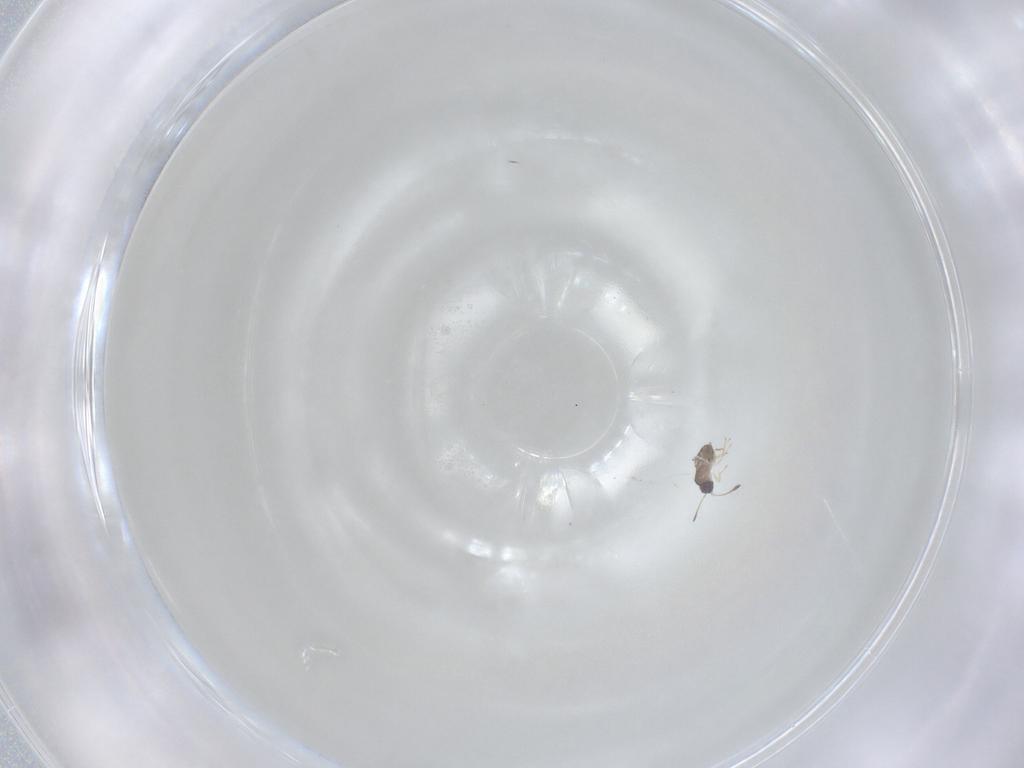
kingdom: Animalia
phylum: Arthropoda
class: Insecta
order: Hymenoptera
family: Mymaridae
